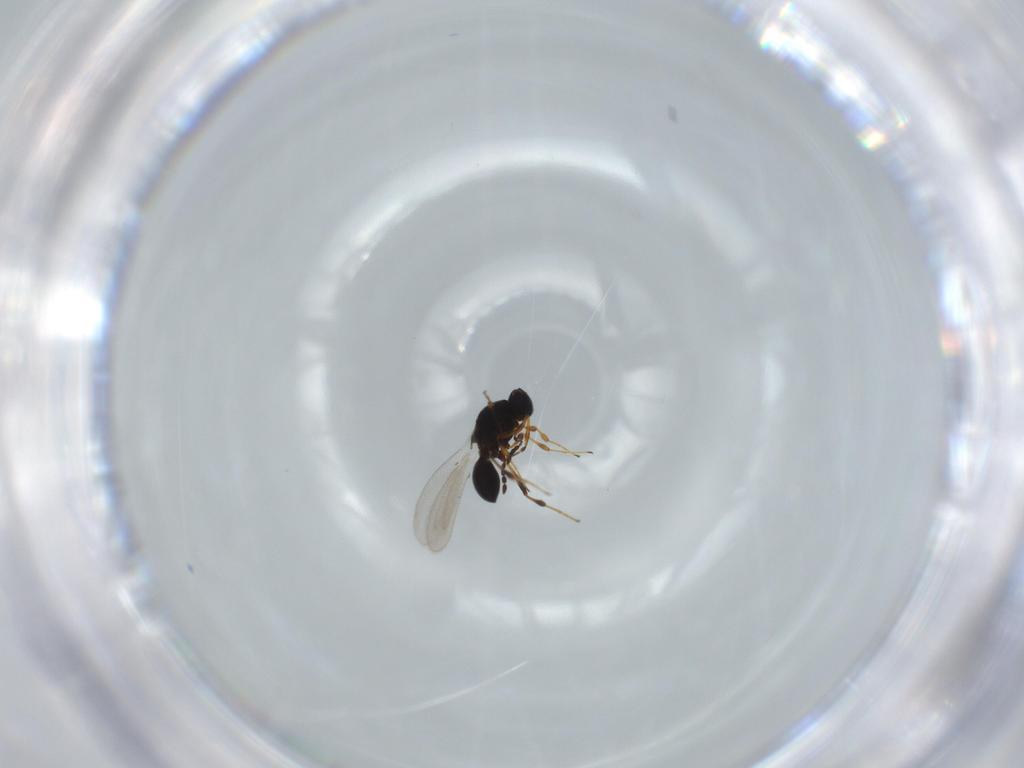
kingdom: Animalia
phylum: Arthropoda
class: Insecta
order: Hymenoptera
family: Platygastridae
